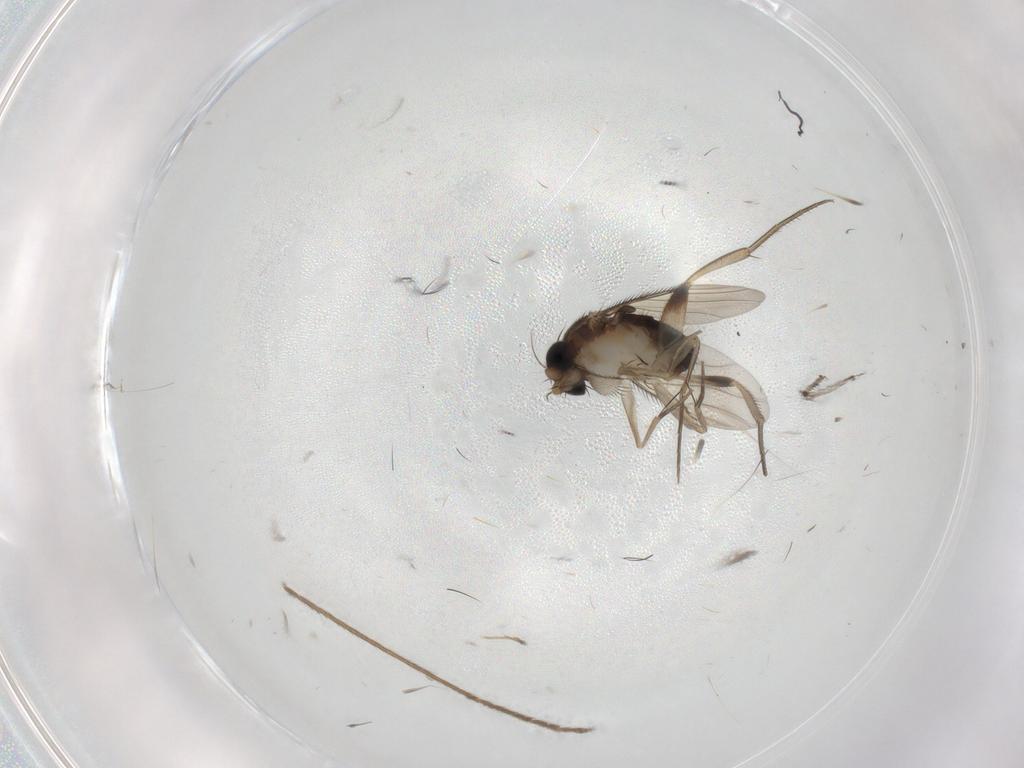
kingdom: Animalia
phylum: Arthropoda
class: Insecta
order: Diptera
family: Phoridae
